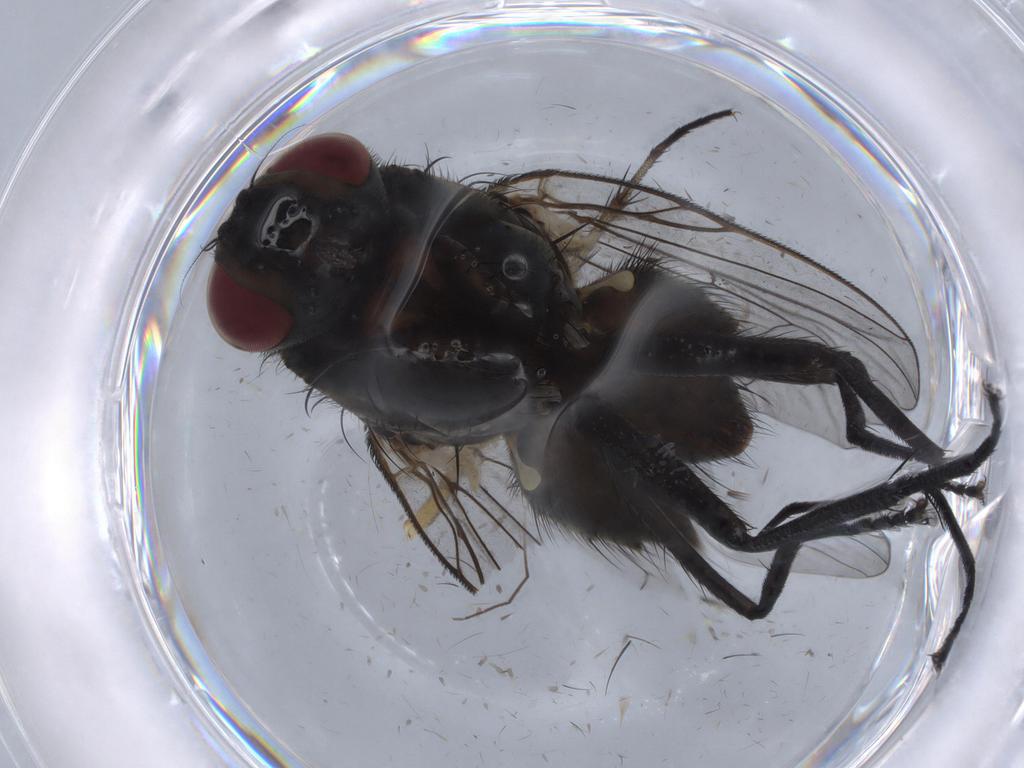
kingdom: Animalia
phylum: Arthropoda
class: Insecta
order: Diptera
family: Muscidae
